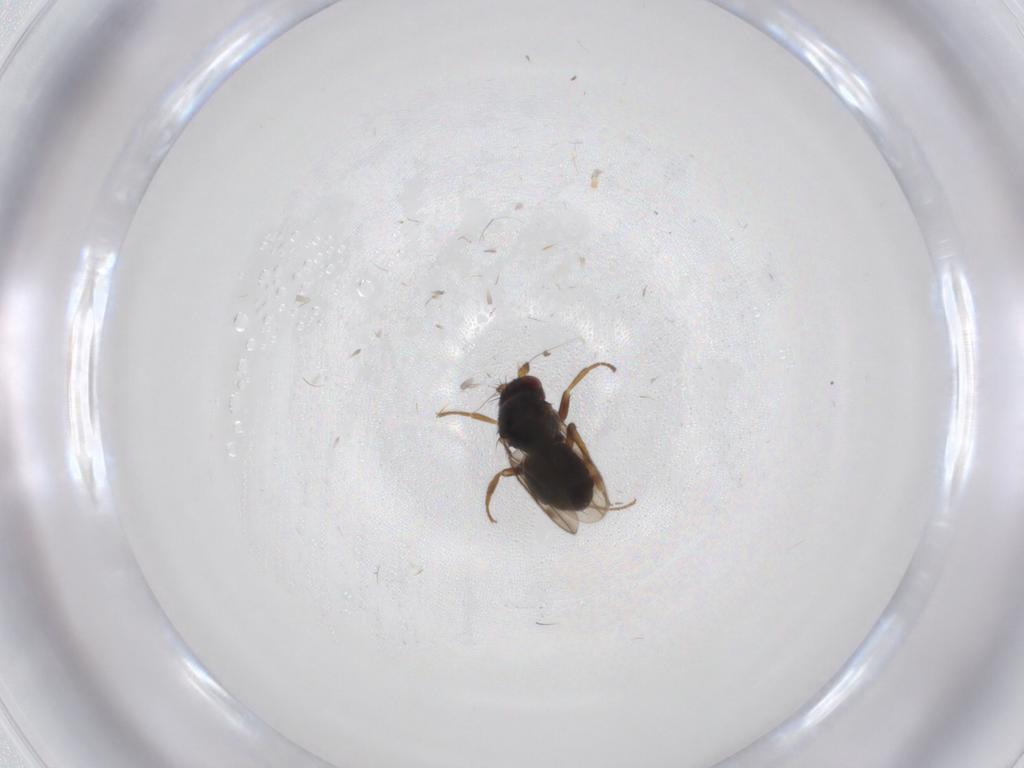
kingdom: Animalia
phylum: Arthropoda
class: Insecta
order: Diptera
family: Sphaeroceridae
